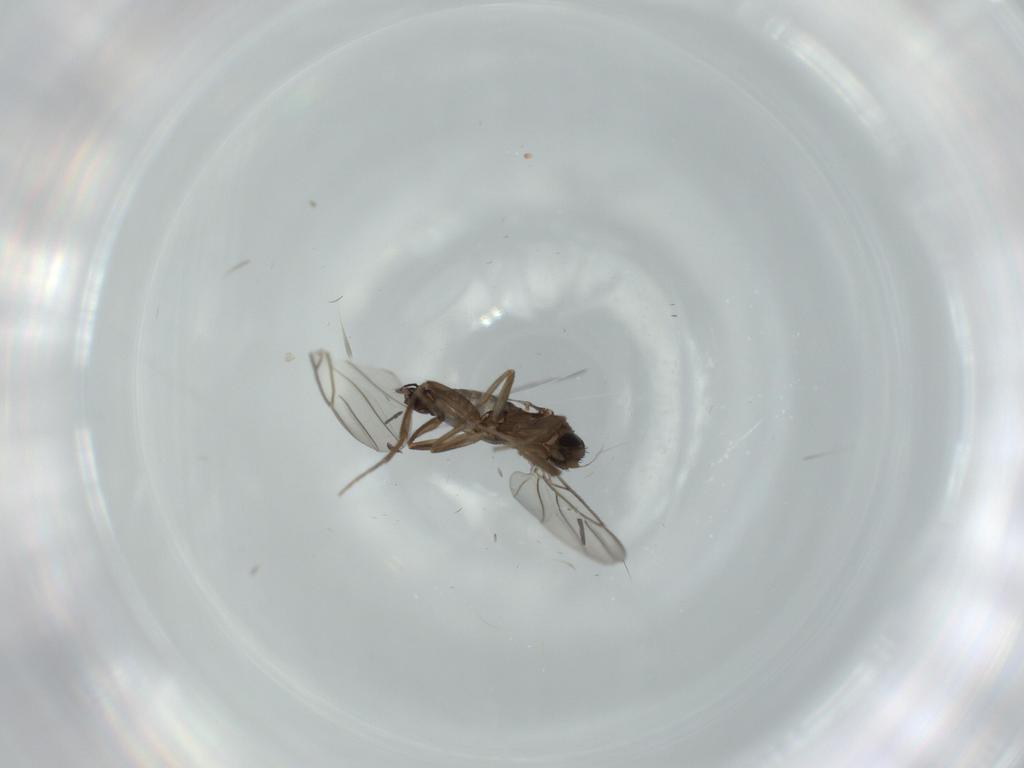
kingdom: Animalia
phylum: Arthropoda
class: Insecta
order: Diptera
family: Sciaridae
